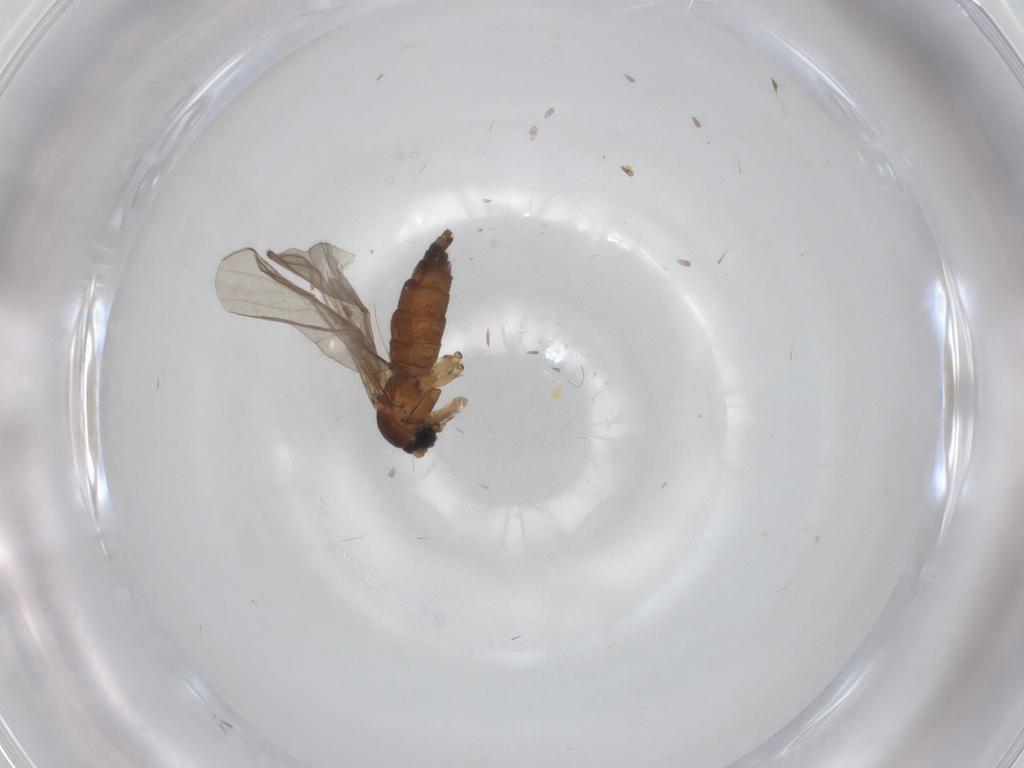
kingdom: Animalia
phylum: Arthropoda
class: Insecta
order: Diptera
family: Sciaridae
